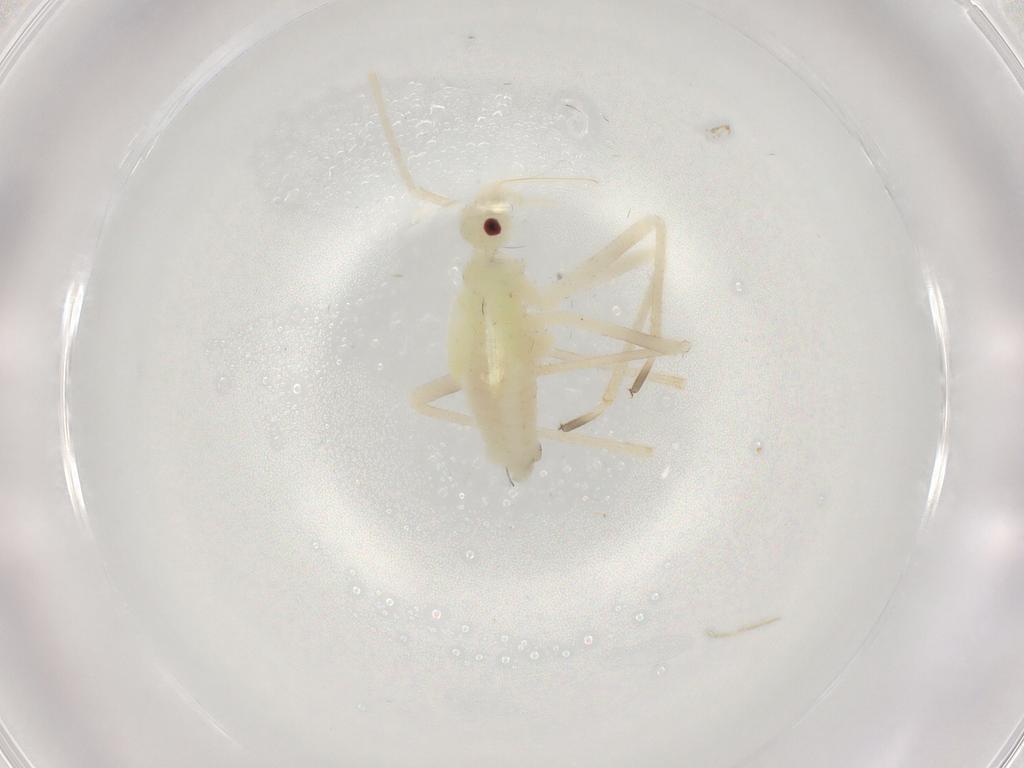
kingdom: Animalia
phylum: Arthropoda
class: Insecta
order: Hemiptera
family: Miridae
